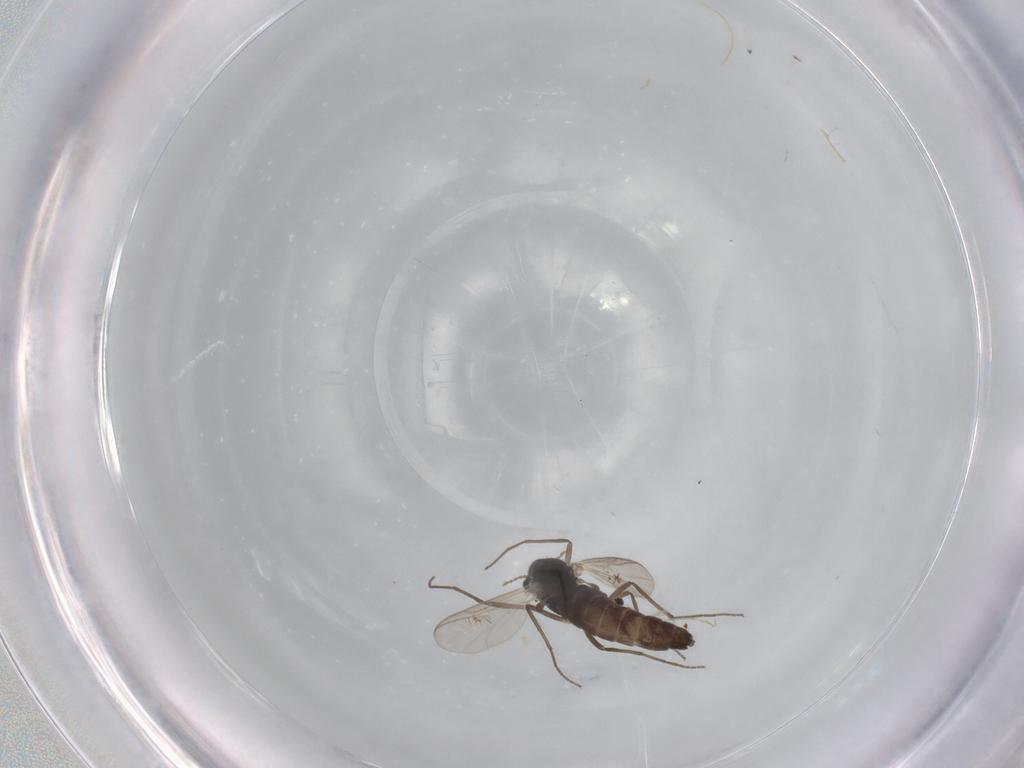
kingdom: Animalia
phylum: Arthropoda
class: Insecta
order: Diptera
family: Chironomidae
